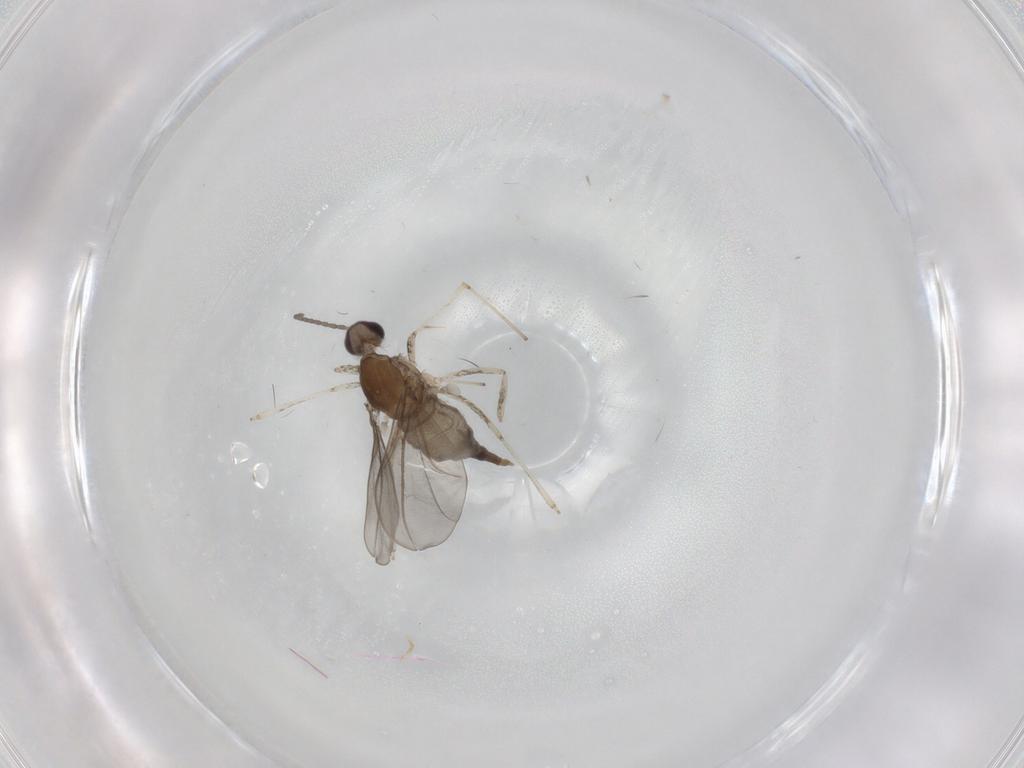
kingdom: Animalia
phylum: Arthropoda
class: Insecta
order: Diptera
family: Cecidomyiidae
